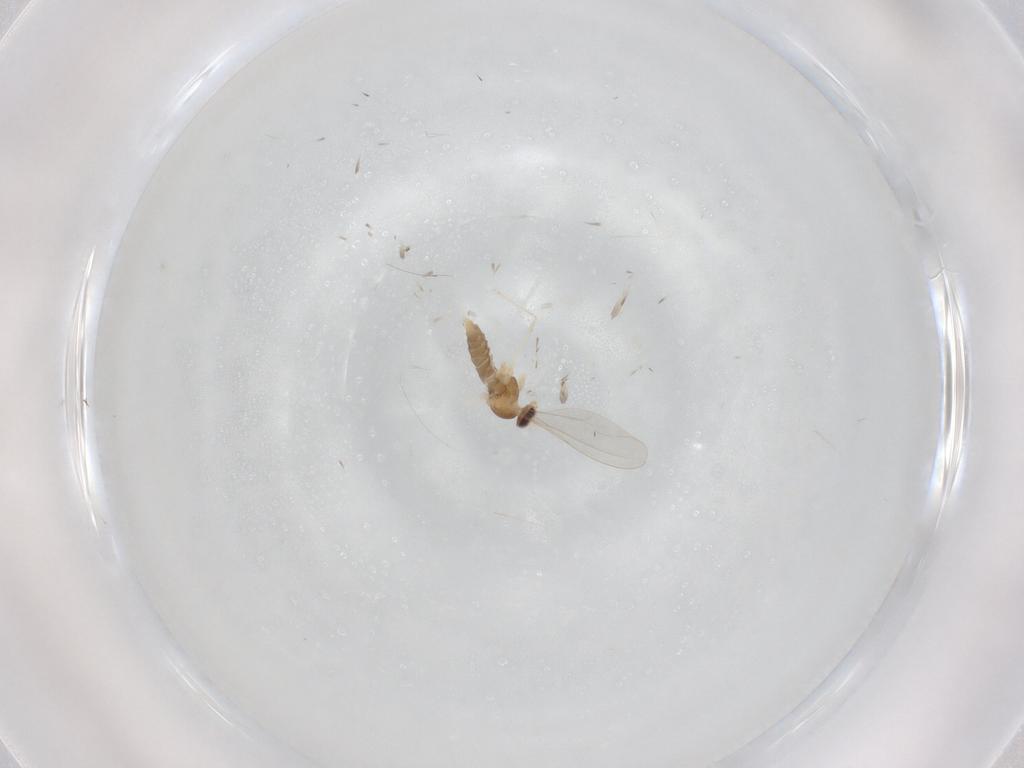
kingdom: Animalia
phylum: Arthropoda
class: Insecta
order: Diptera
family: Cecidomyiidae
